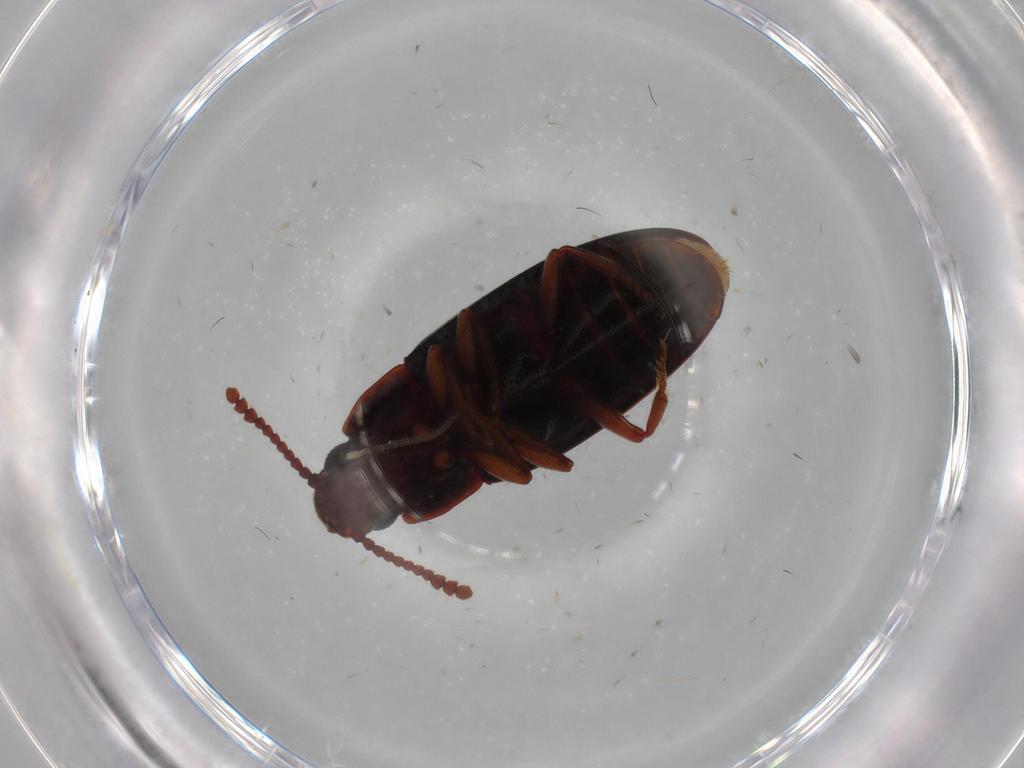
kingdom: Animalia
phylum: Arthropoda
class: Insecta
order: Coleoptera
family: Erotylidae
